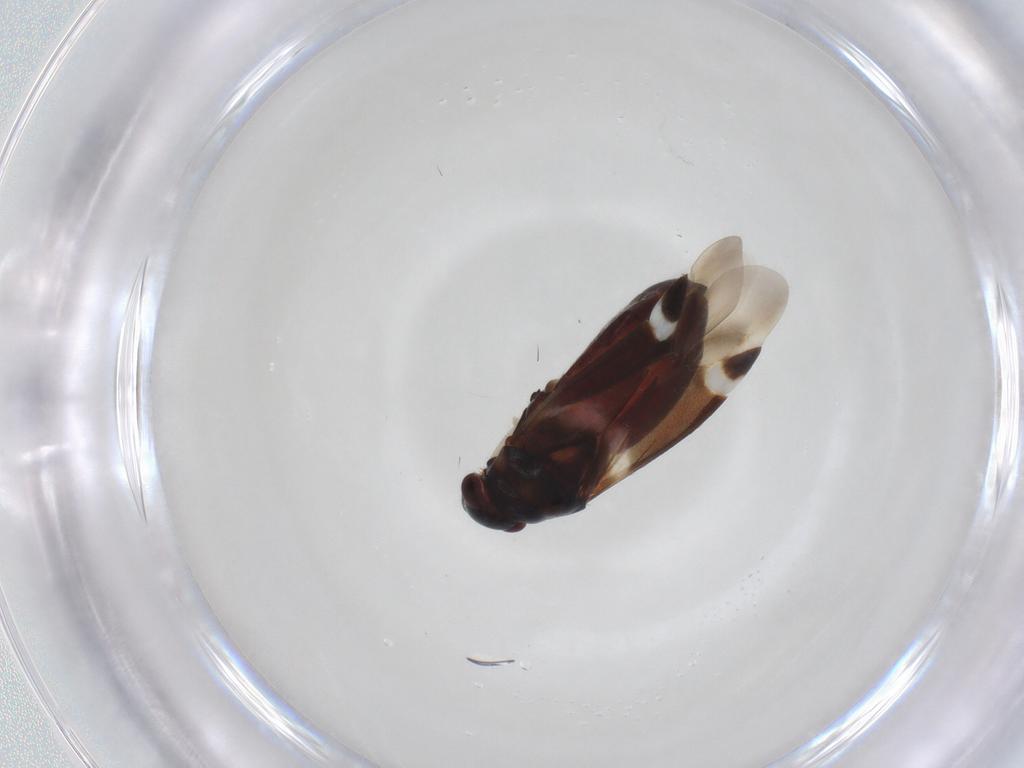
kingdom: Animalia
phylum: Arthropoda
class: Insecta
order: Hemiptera
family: Miridae
